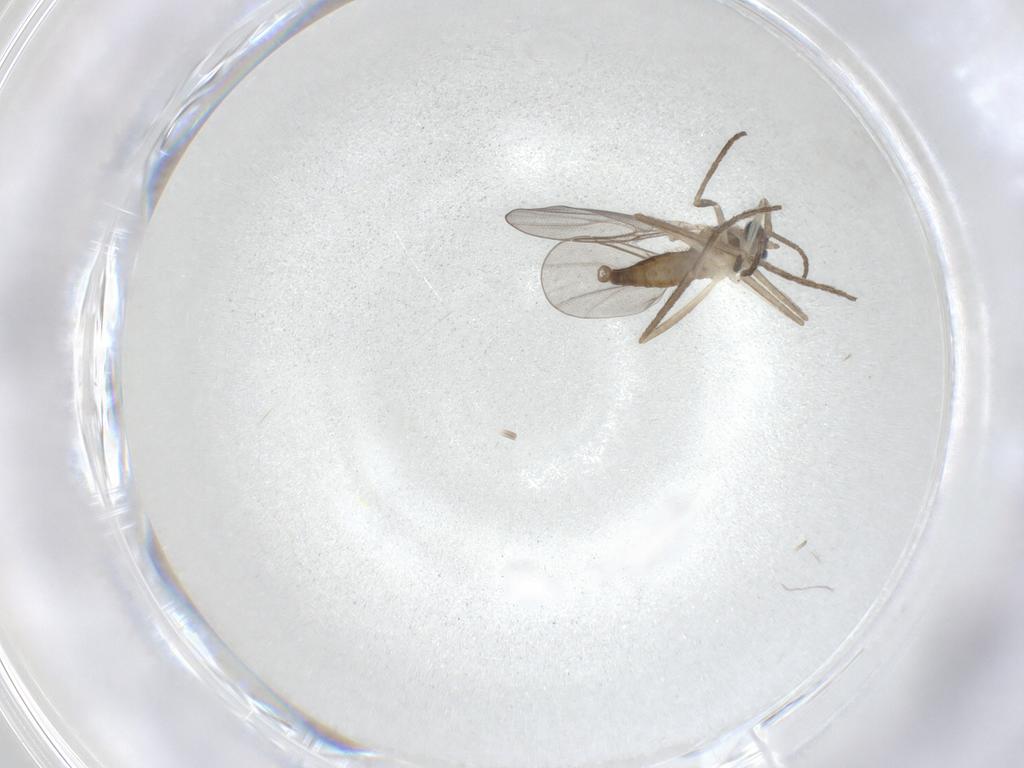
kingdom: Animalia
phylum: Arthropoda
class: Insecta
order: Diptera
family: Cecidomyiidae
